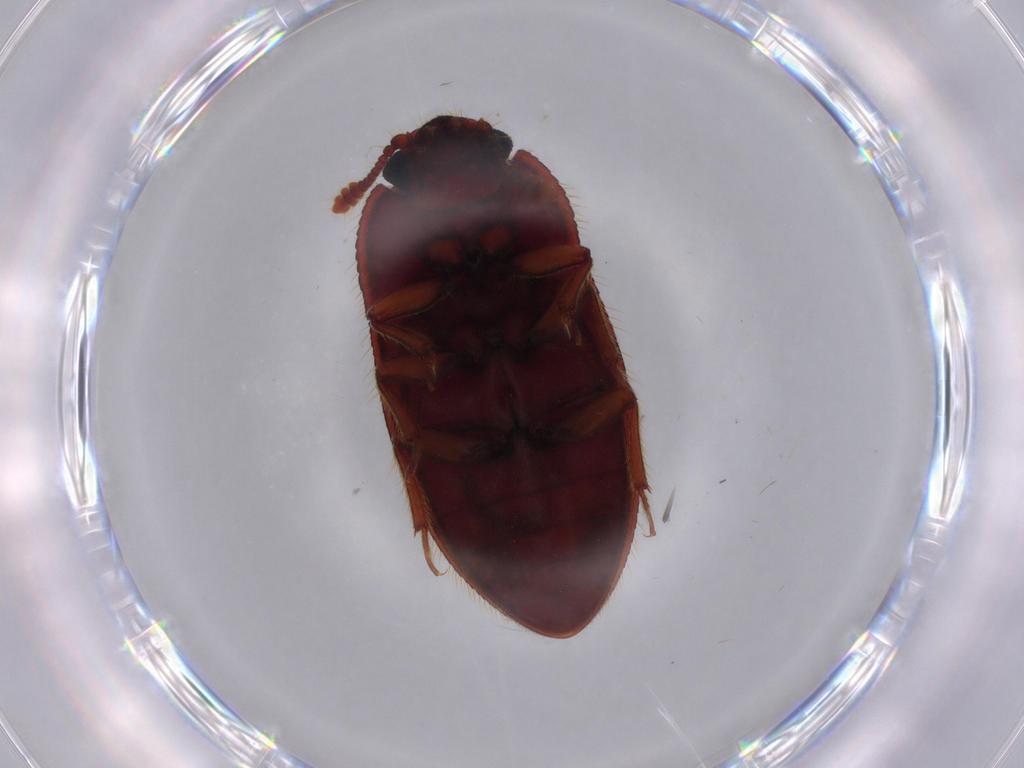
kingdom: Animalia
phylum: Arthropoda
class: Insecta
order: Coleoptera
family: Biphyllidae
